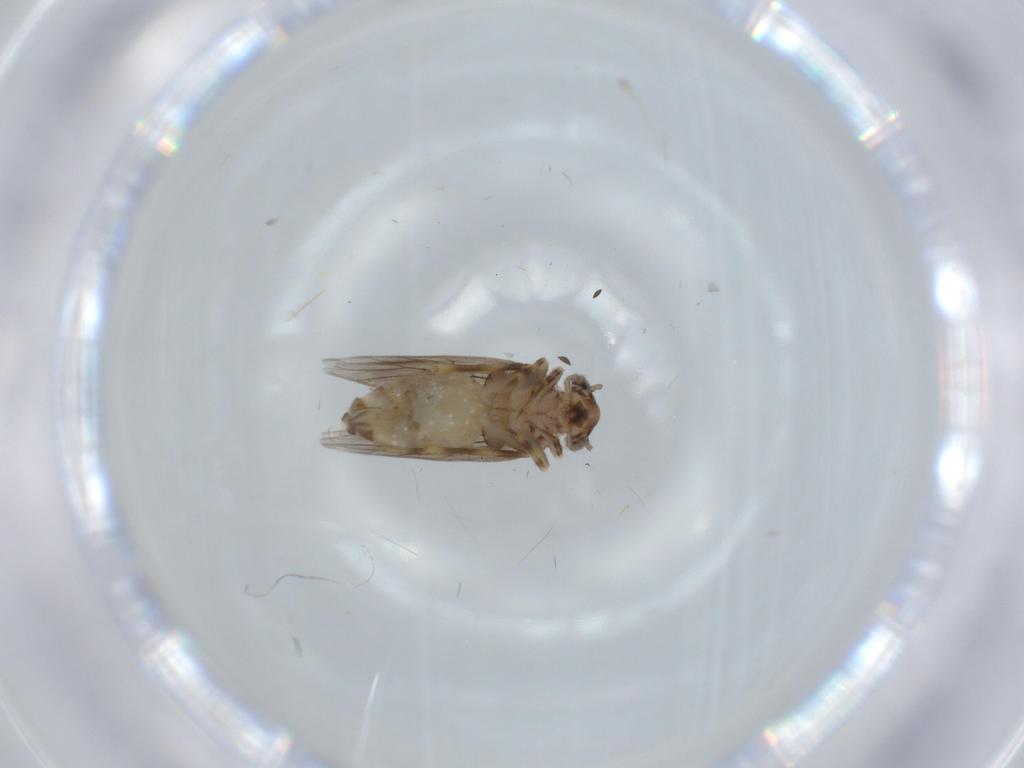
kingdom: Animalia
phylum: Arthropoda
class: Insecta
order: Psocodea
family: Lepidopsocidae
